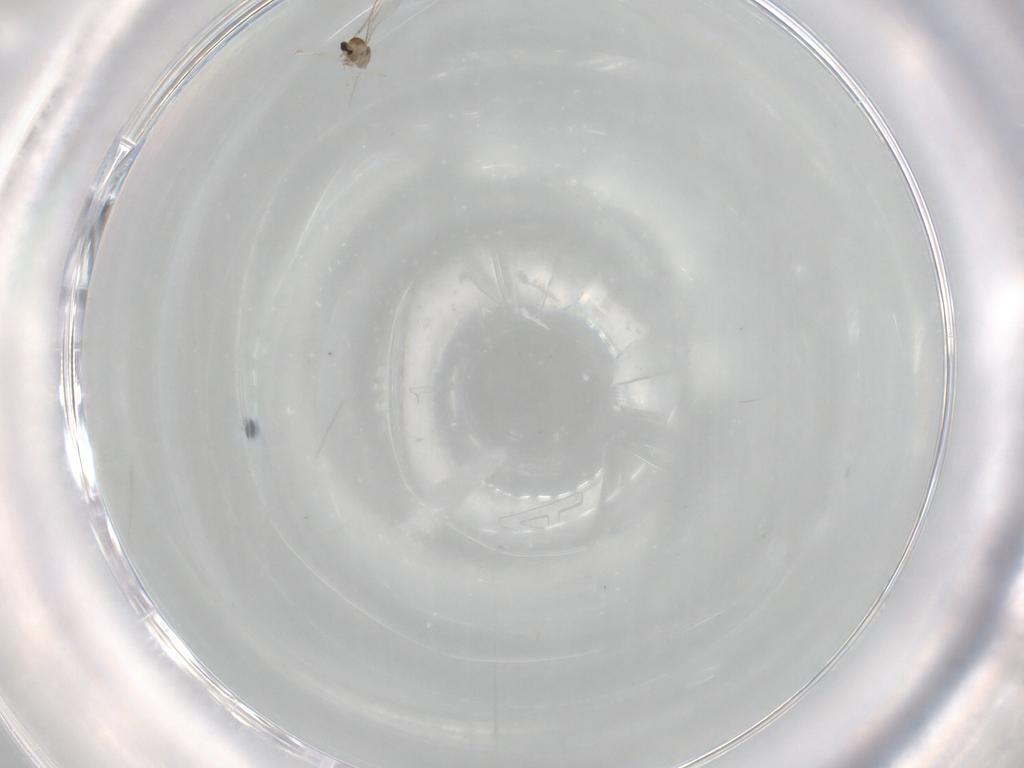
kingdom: Animalia
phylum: Arthropoda
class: Insecta
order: Diptera
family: Cecidomyiidae
